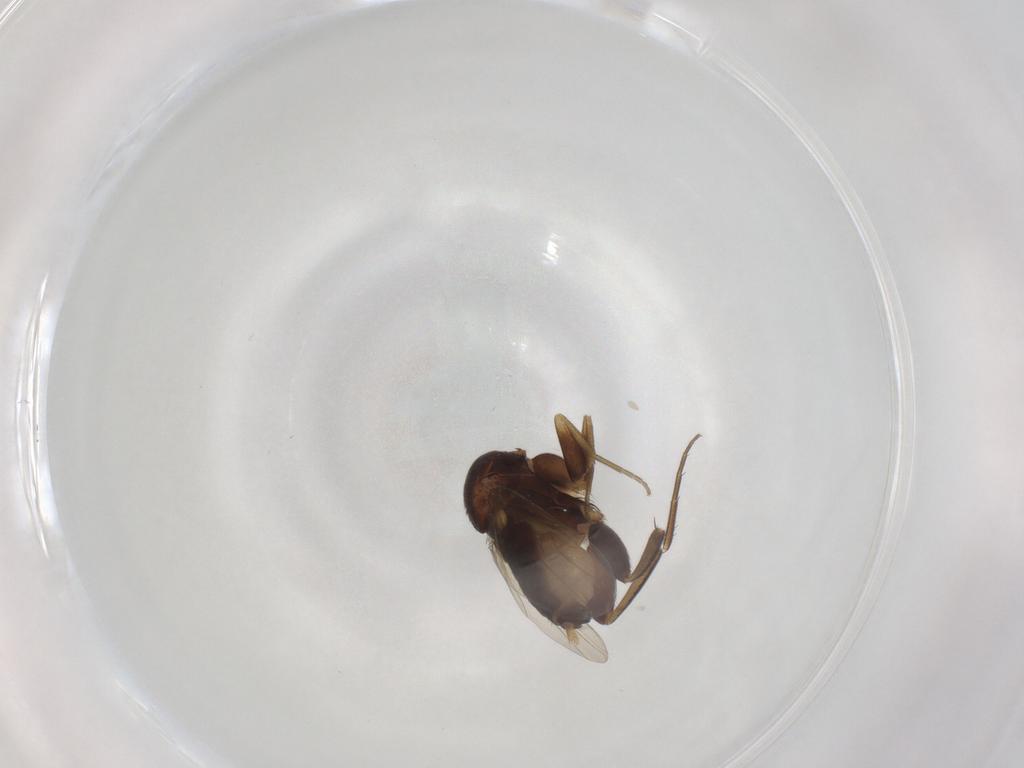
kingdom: Animalia
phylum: Arthropoda
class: Insecta
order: Diptera
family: Phoridae
